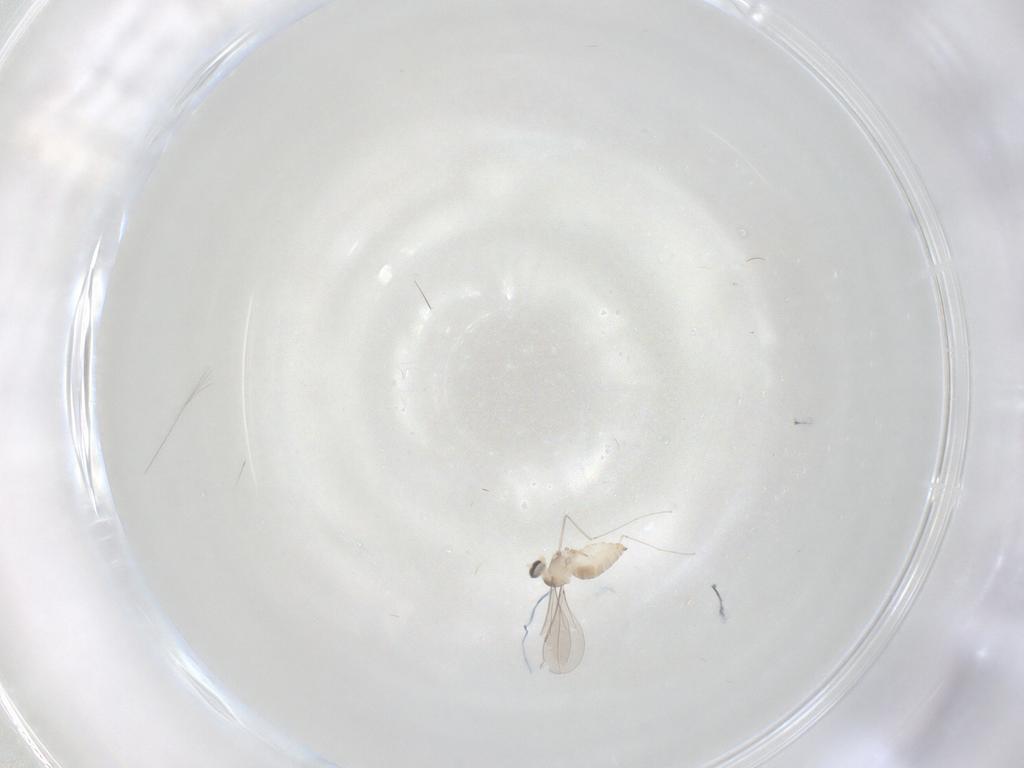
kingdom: Animalia
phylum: Arthropoda
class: Insecta
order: Diptera
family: Cecidomyiidae
